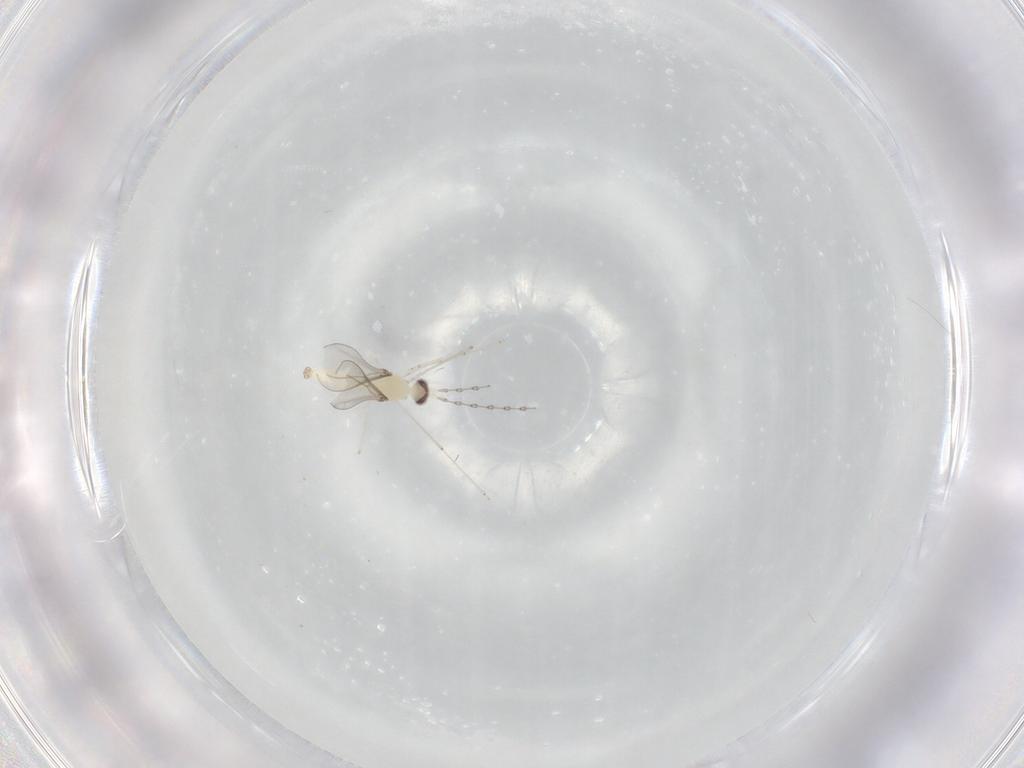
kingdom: Animalia
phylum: Arthropoda
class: Insecta
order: Diptera
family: Cecidomyiidae
